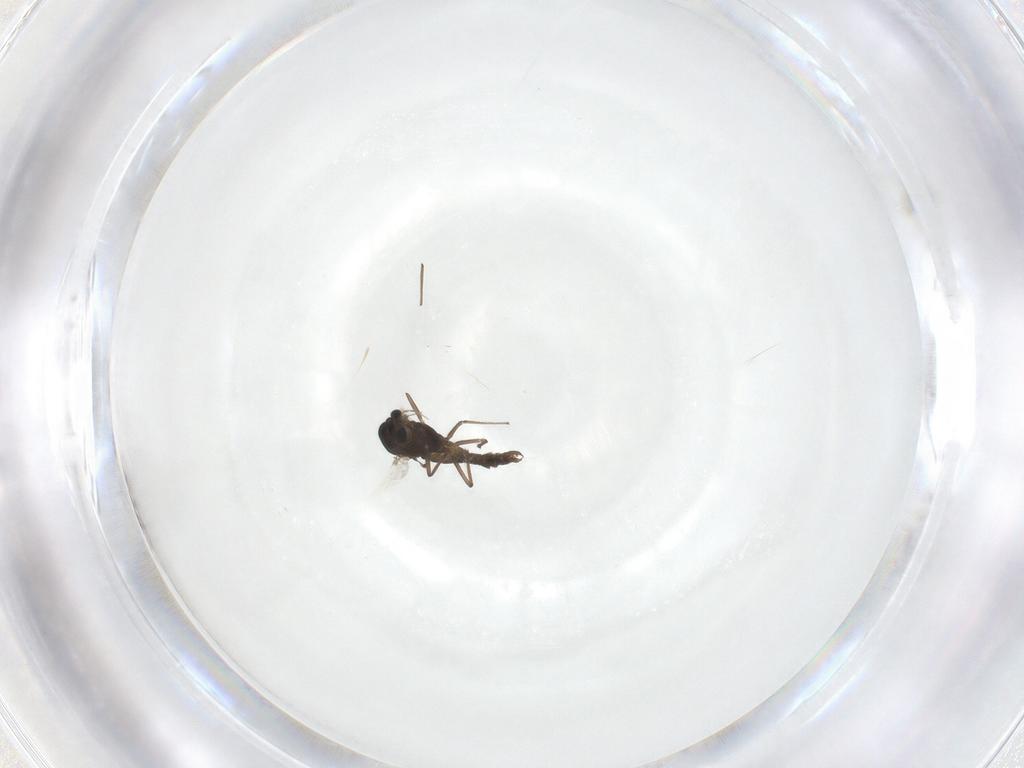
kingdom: Animalia
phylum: Arthropoda
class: Insecta
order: Diptera
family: Chironomidae
